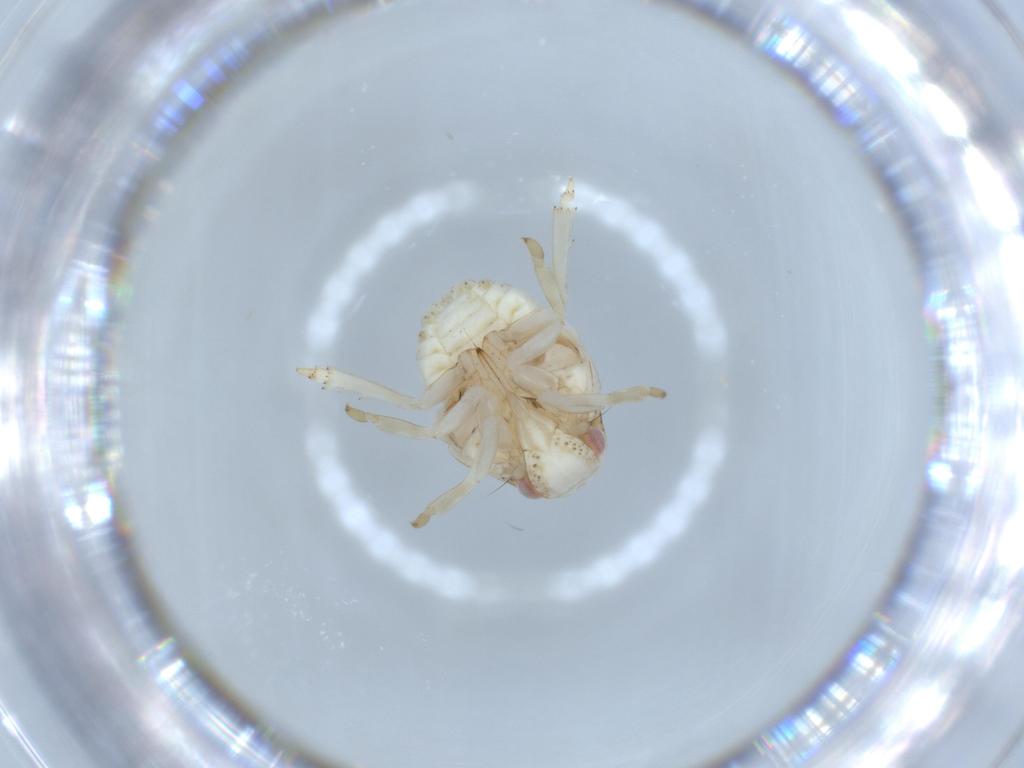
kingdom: Animalia
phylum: Arthropoda
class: Insecta
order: Hemiptera
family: Acanaloniidae
